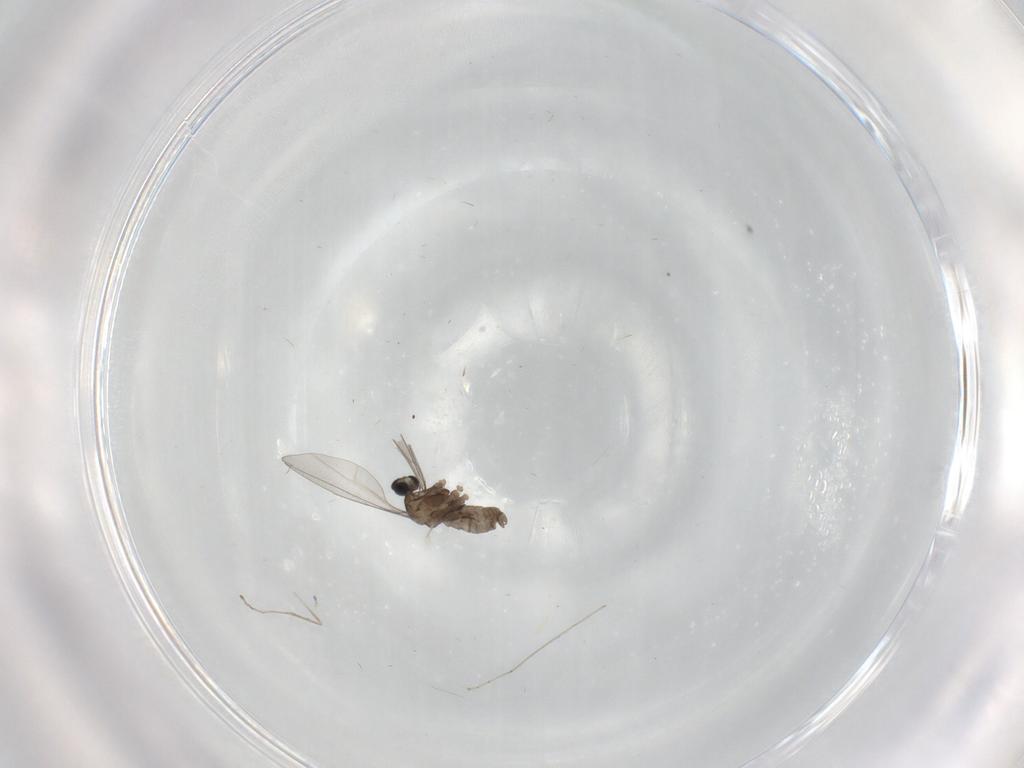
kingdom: Animalia
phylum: Arthropoda
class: Insecta
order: Diptera
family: Cecidomyiidae
